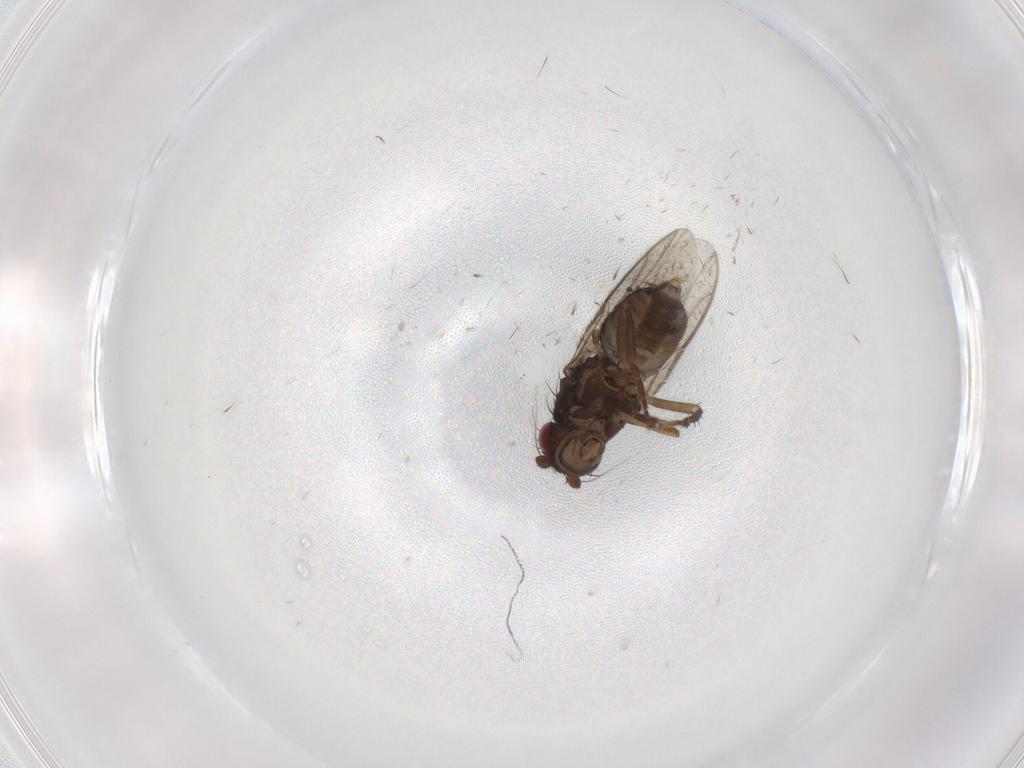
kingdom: Animalia
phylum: Arthropoda
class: Insecta
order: Diptera
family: Sphaeroceridae
